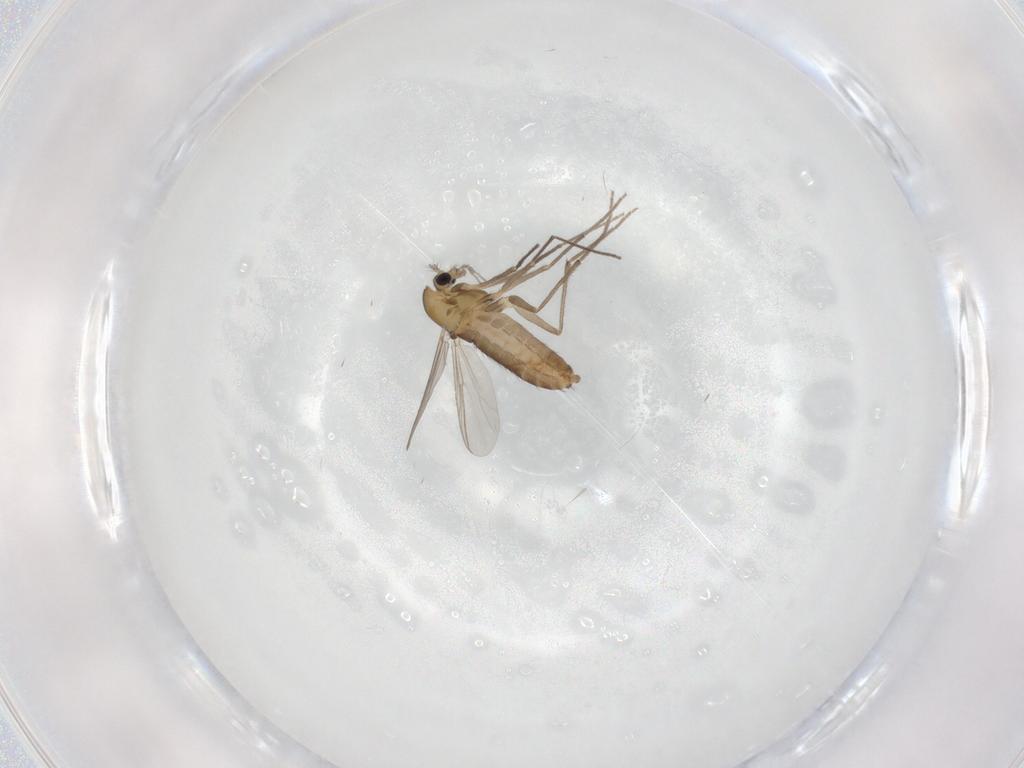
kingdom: Animalia
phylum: Arthropoda
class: Insecta
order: Diptera
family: Chironomidae
